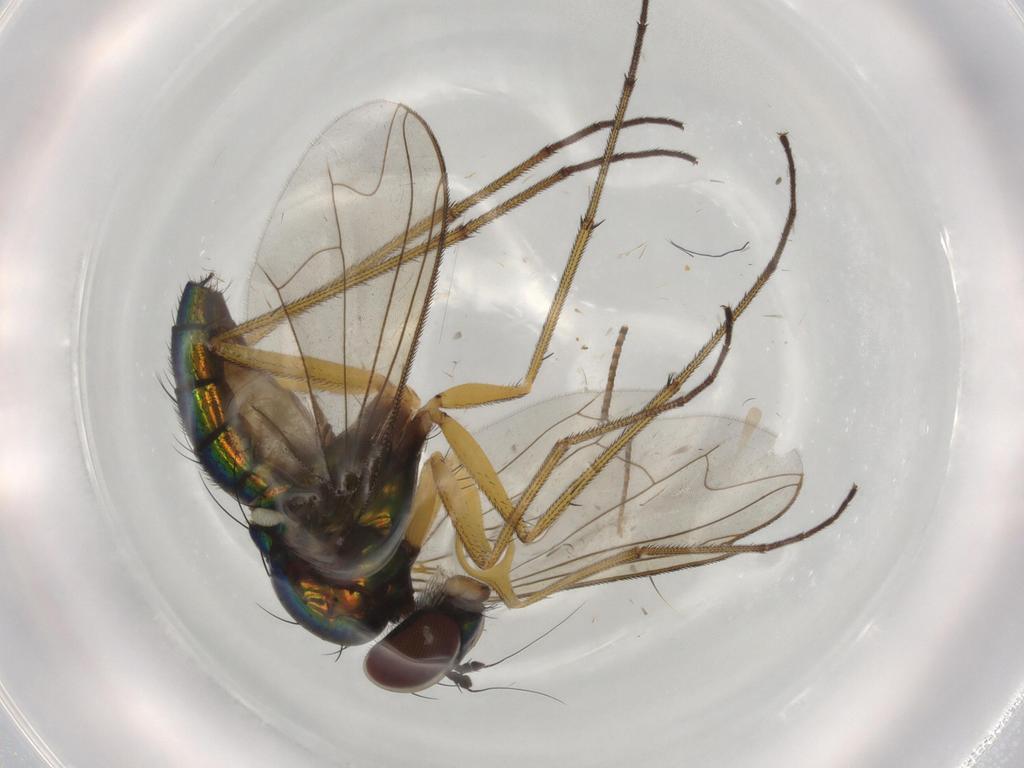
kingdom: Animalia
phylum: Arthropoda
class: Insecta
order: Diptera
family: Dolichopodidae
